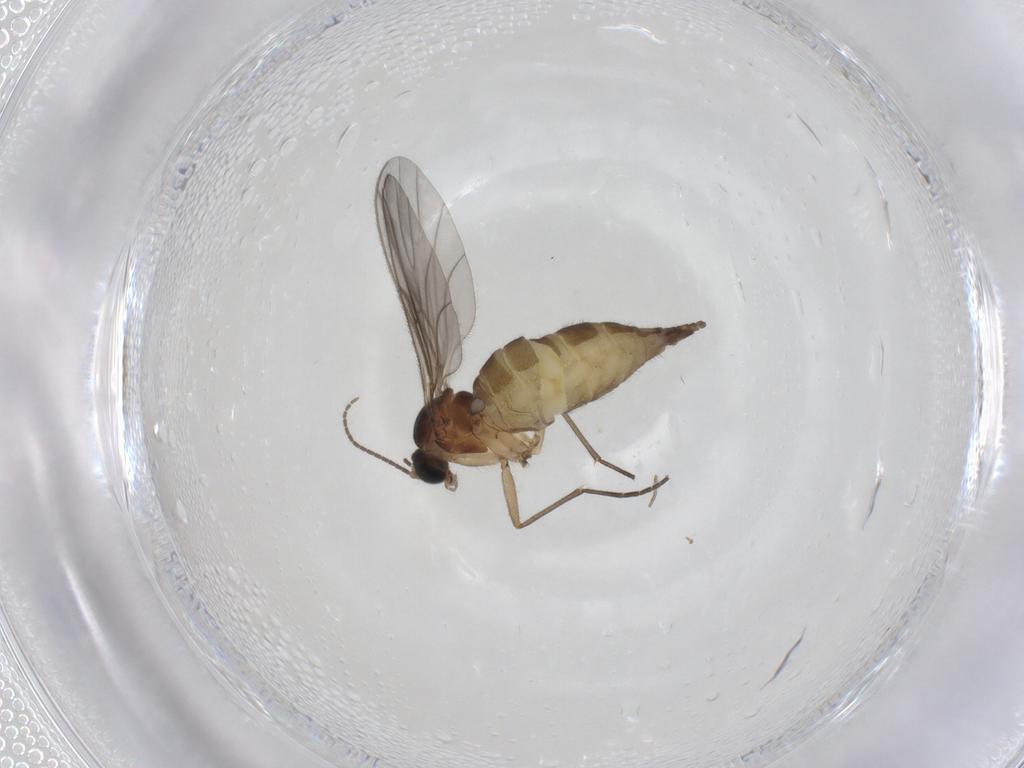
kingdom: Animalia
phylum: Arthropoda
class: Insecta
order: Diptera
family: Sciaridae
